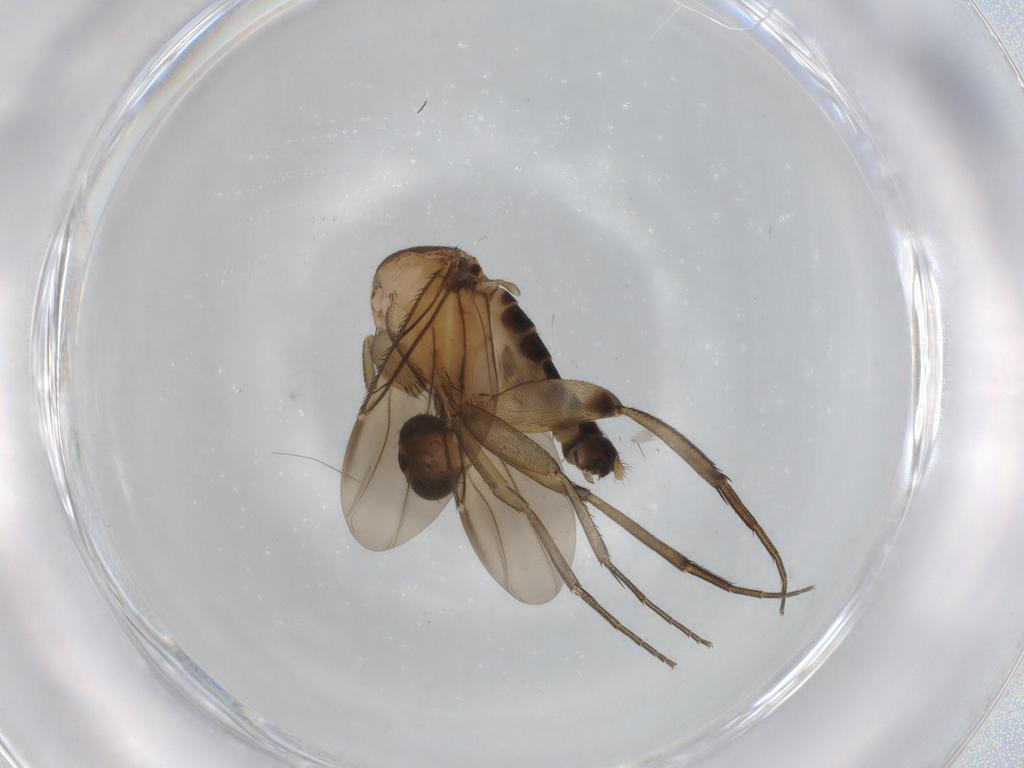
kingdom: Animalia
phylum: Arthropoda
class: Insecta
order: Diptera
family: Phoridae
